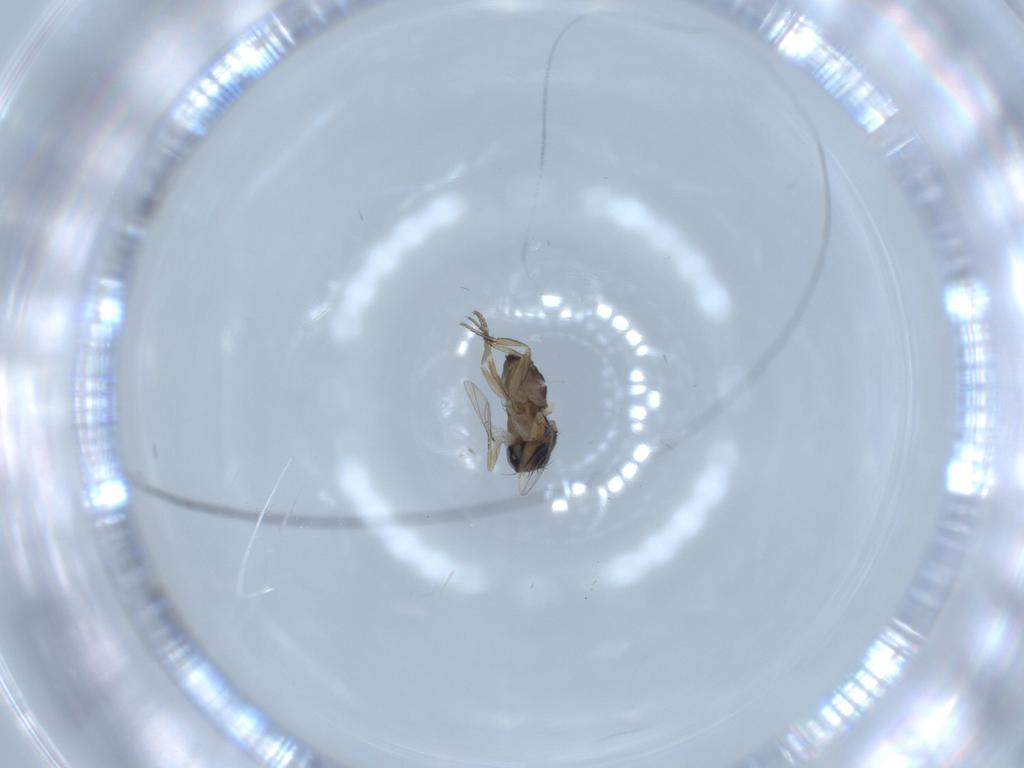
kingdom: Animalia
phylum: Arthropoda
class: Insecta
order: Diptera
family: Phoridae
